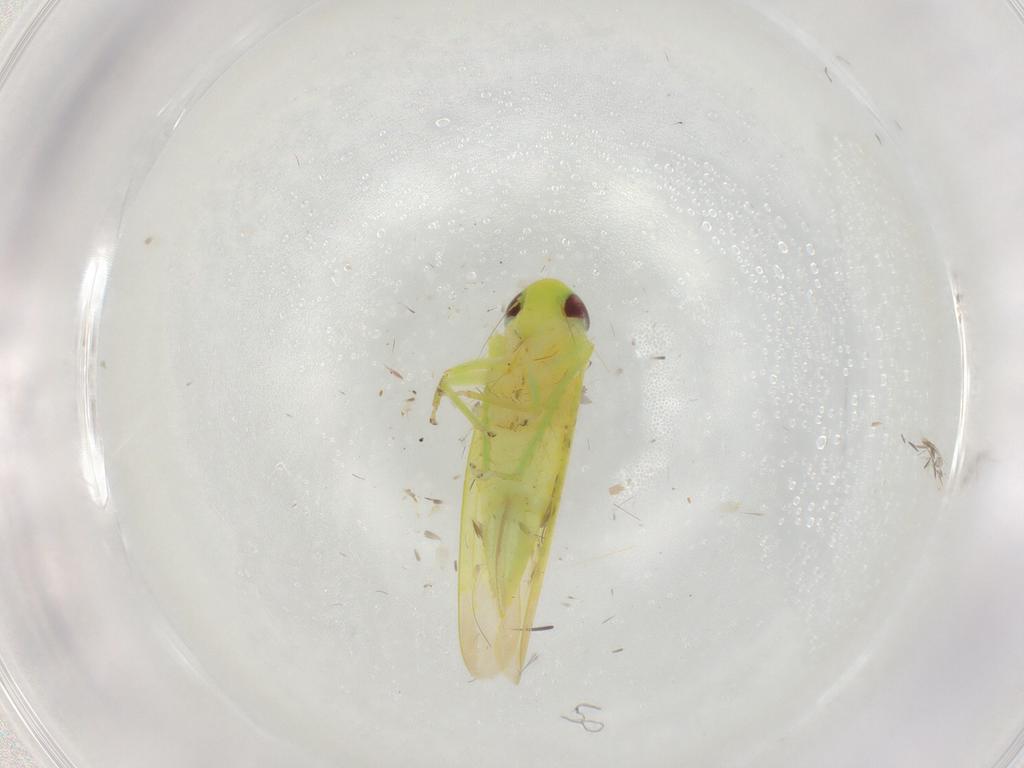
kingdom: Animalia
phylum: Arthropoda
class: Insecta
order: Hemiptera
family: Cicadellidae
